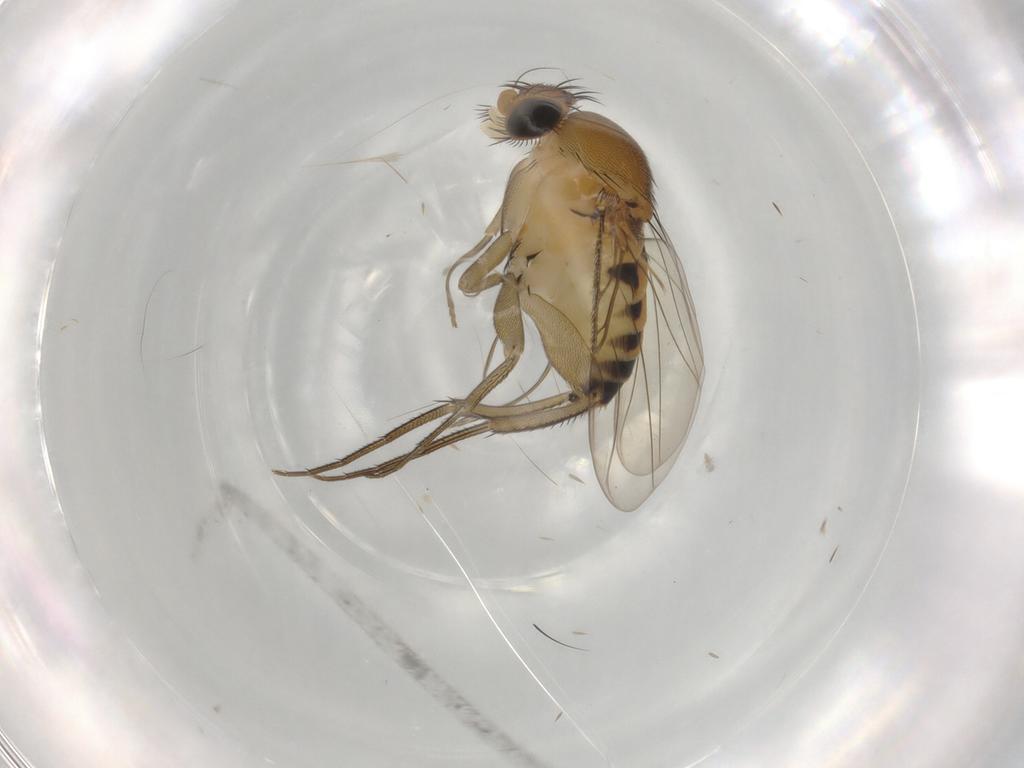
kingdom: Animalia
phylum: Arthropoda
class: Insecta
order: Diptera
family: Phoridae
